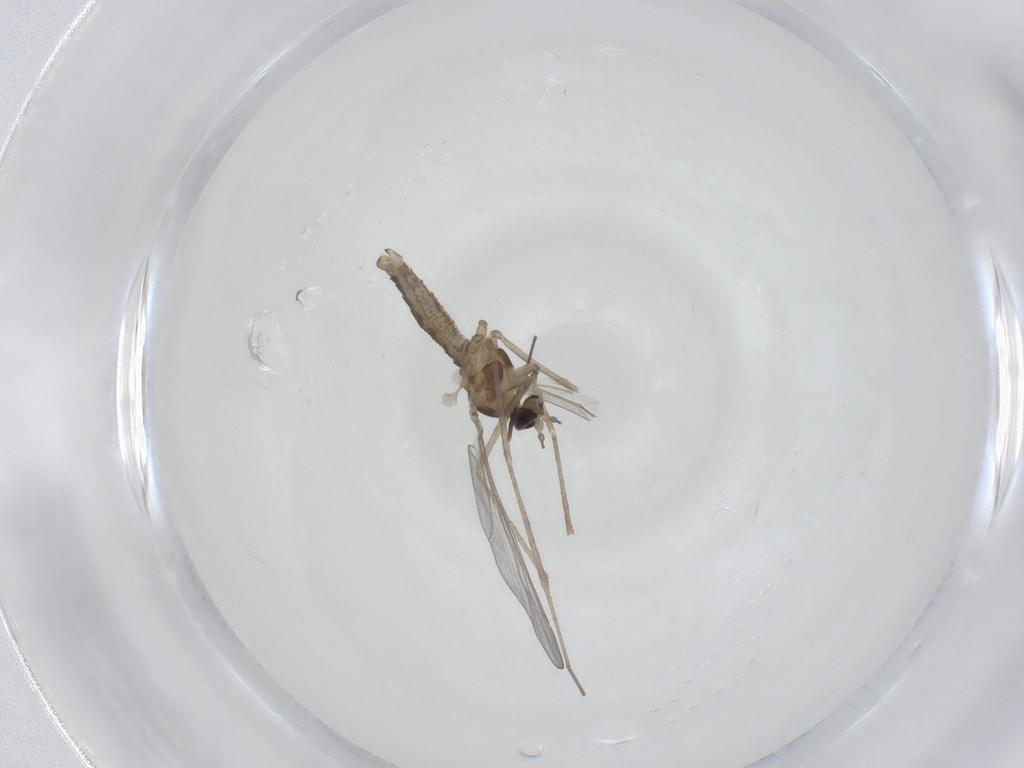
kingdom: Animalia
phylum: Arthropoda
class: Insecta
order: Diptera
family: Chironomidae
